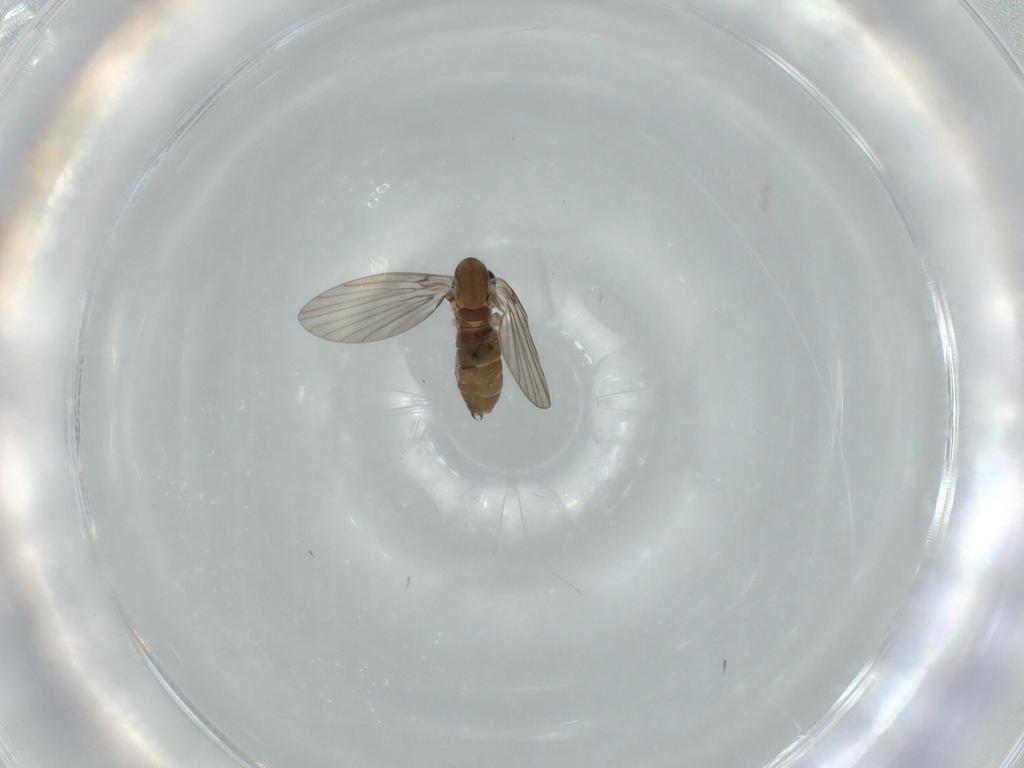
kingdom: Animalia
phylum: Arthropoda
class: Insecta
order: Diptera
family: Psychodidae
